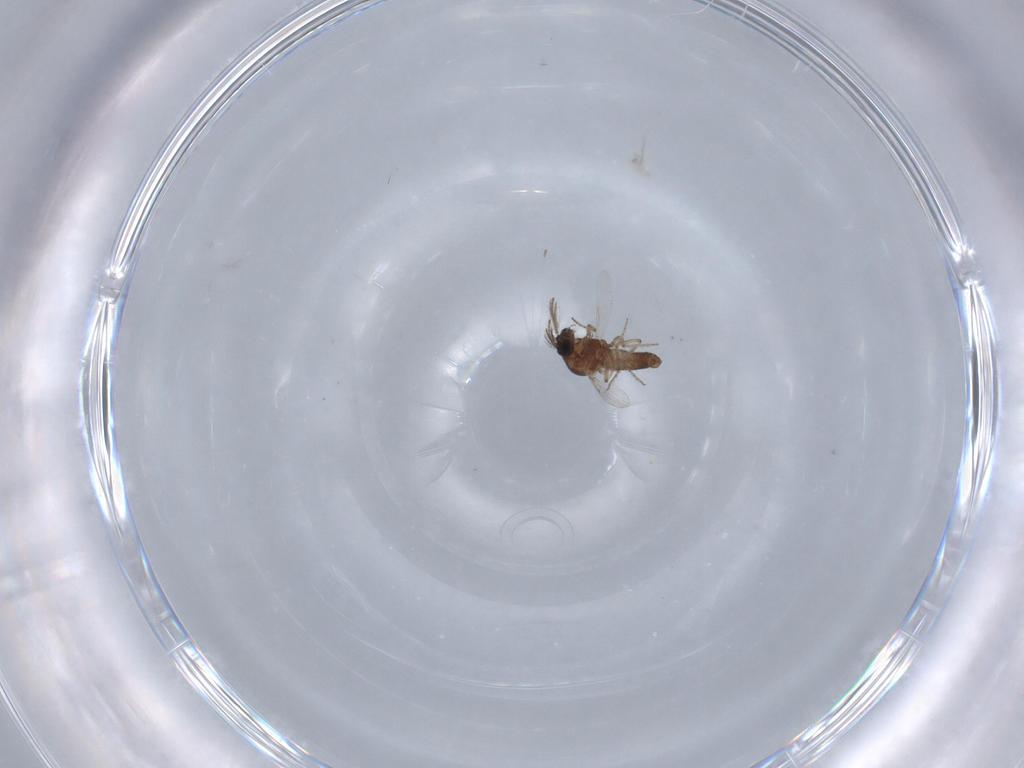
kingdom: Animalia
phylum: Arthropoda
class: Insecta
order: Diptera
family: Ceratopogonidae
